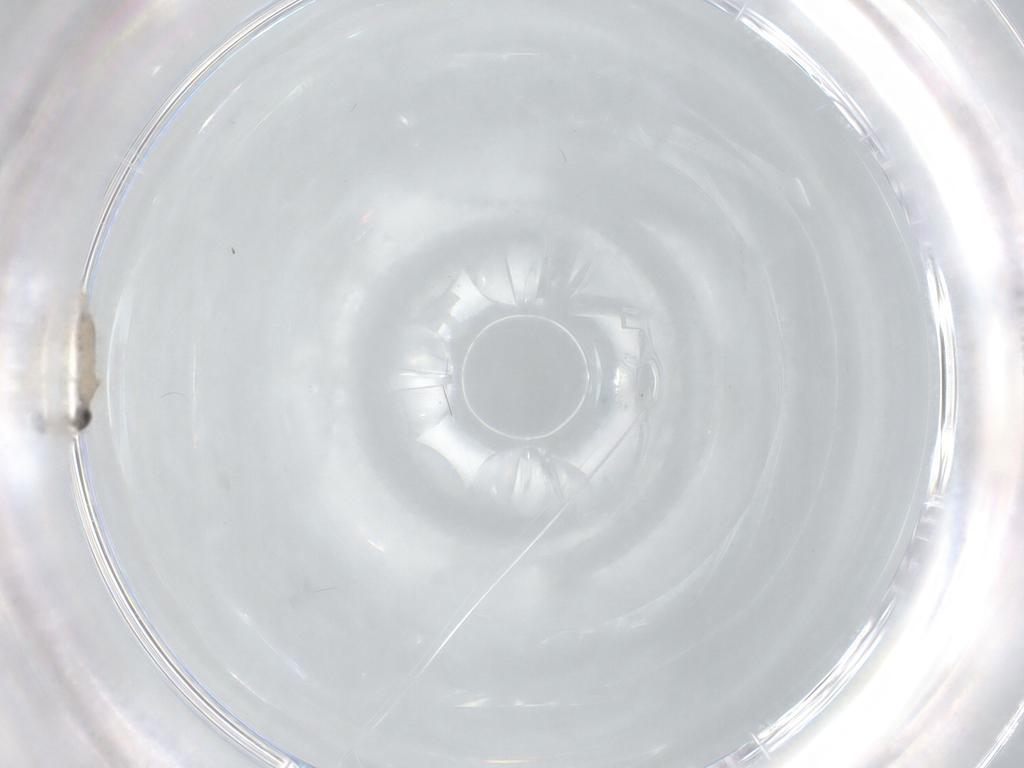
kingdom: Animalia
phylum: Arthropoda
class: Insecta
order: Diptera
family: Cecidomyiidae
